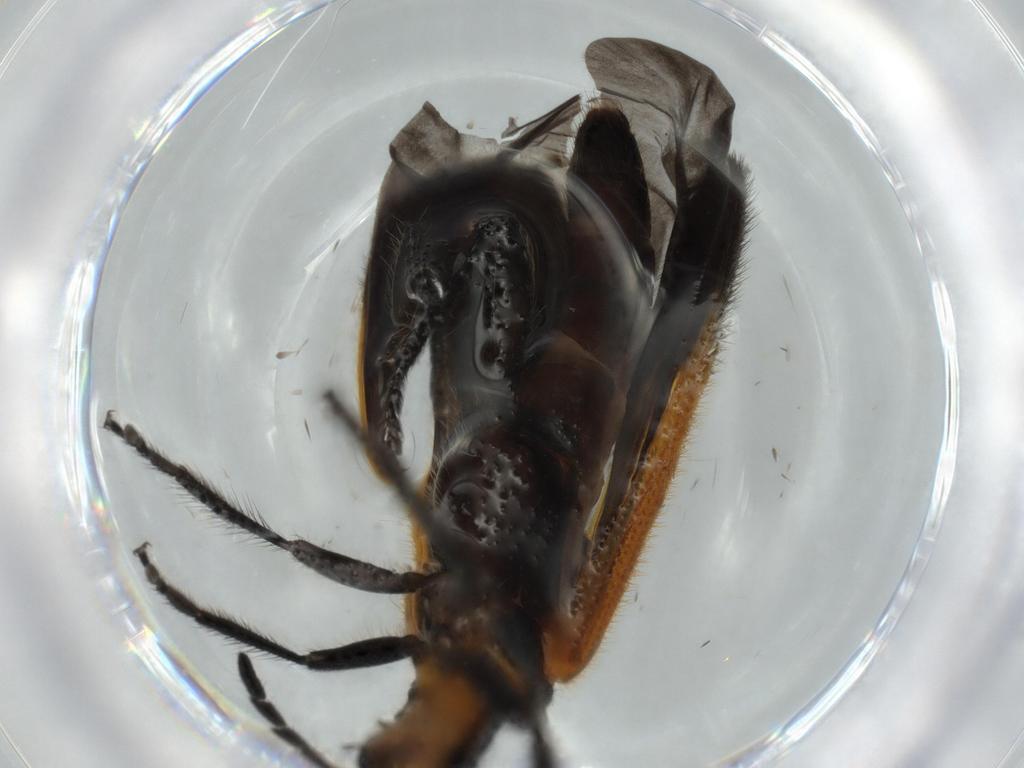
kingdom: Animalia
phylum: Arthropoda
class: Insecta
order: Coleoptera
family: Cleridae
